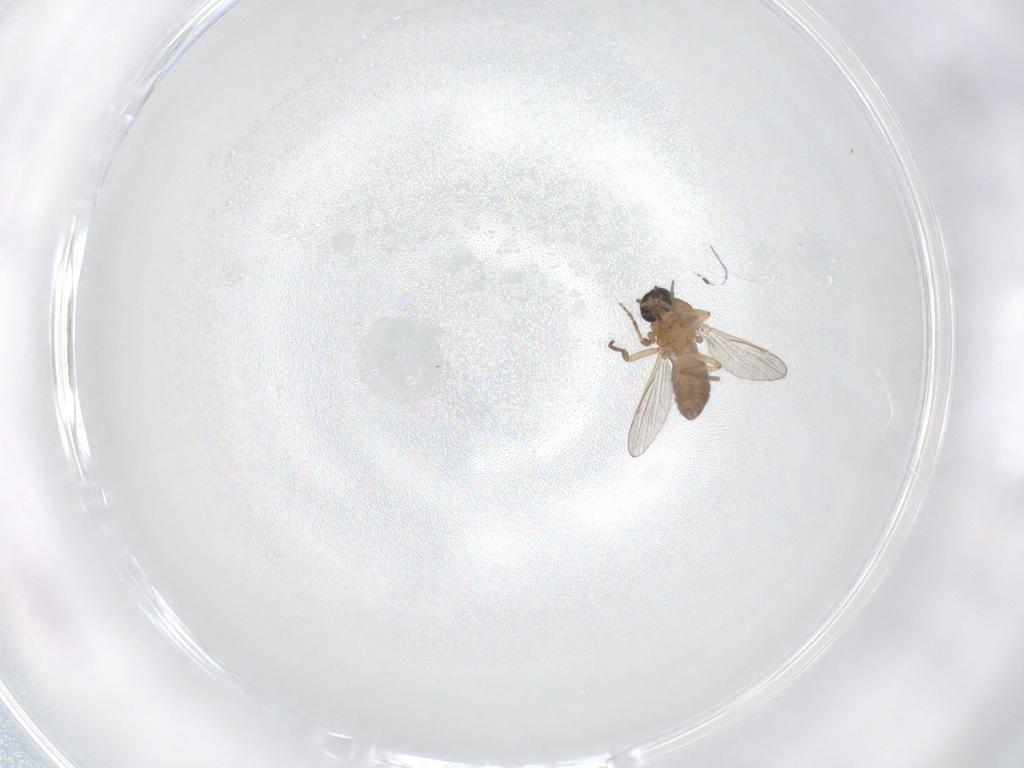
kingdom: Animalia
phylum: Arthropoda
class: Insecta
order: Diptera
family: Ceratopogonidae
